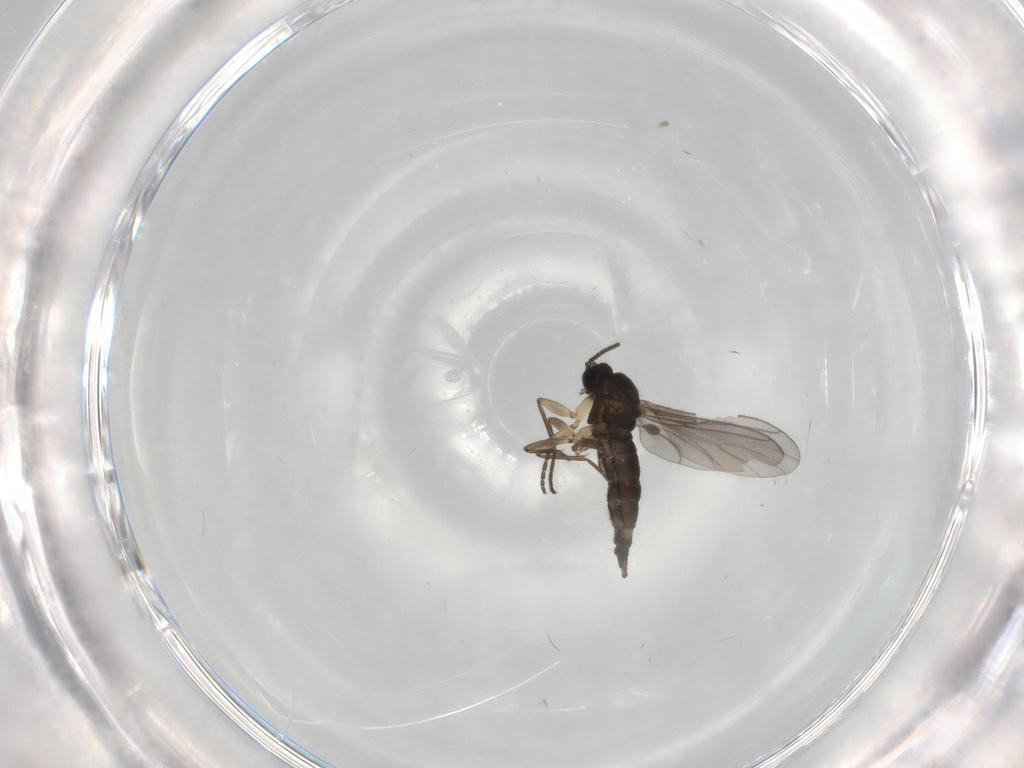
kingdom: Animalia
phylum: Arthropoda
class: Insecta
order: Diptera
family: Sciaridae
